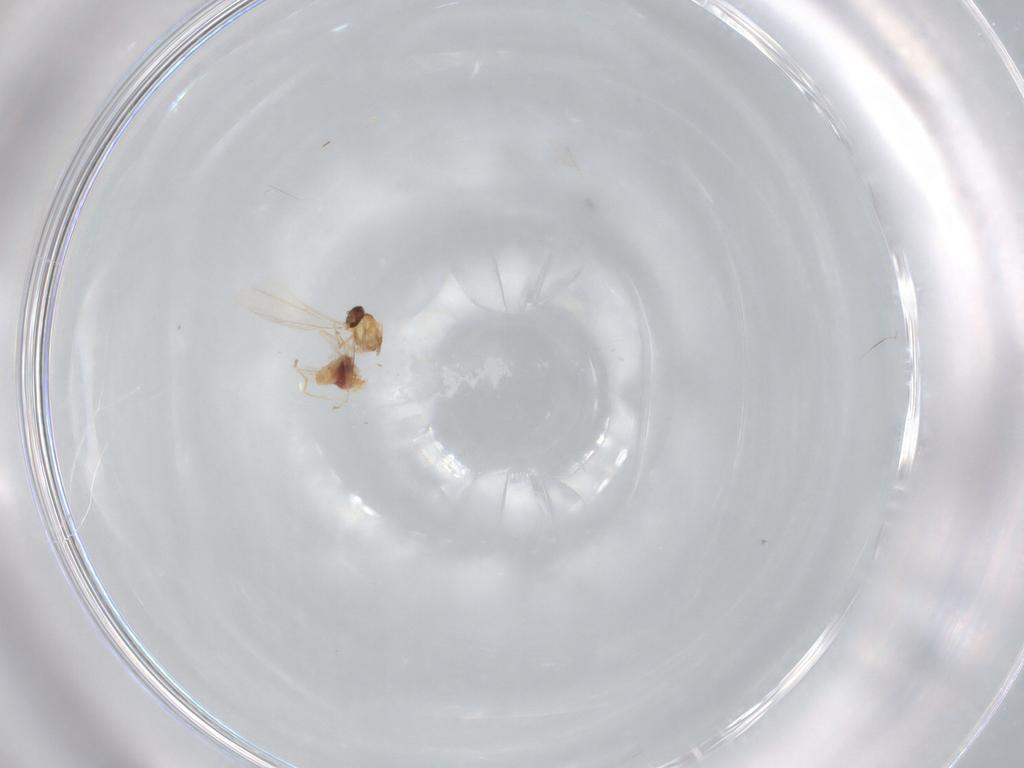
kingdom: Animalia
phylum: Arthropoda
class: Insecta
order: Diptera
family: Cecidomyiidae
